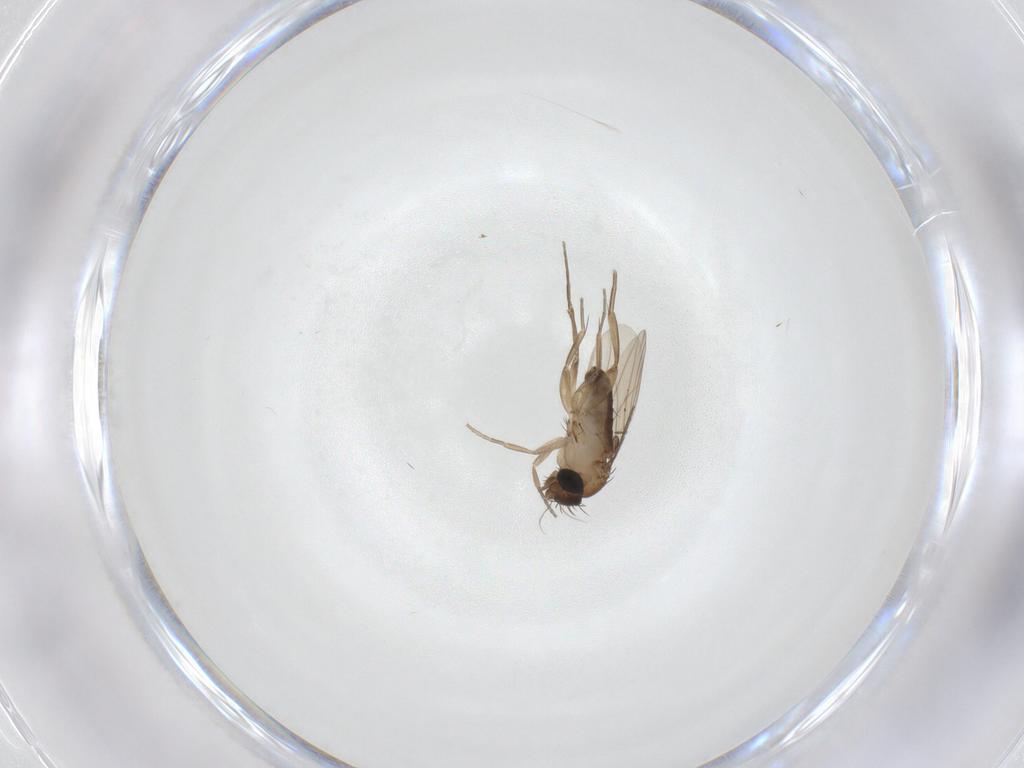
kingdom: Animalia
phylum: Arthropoda
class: Insecta
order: Diptera
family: Phoridae
